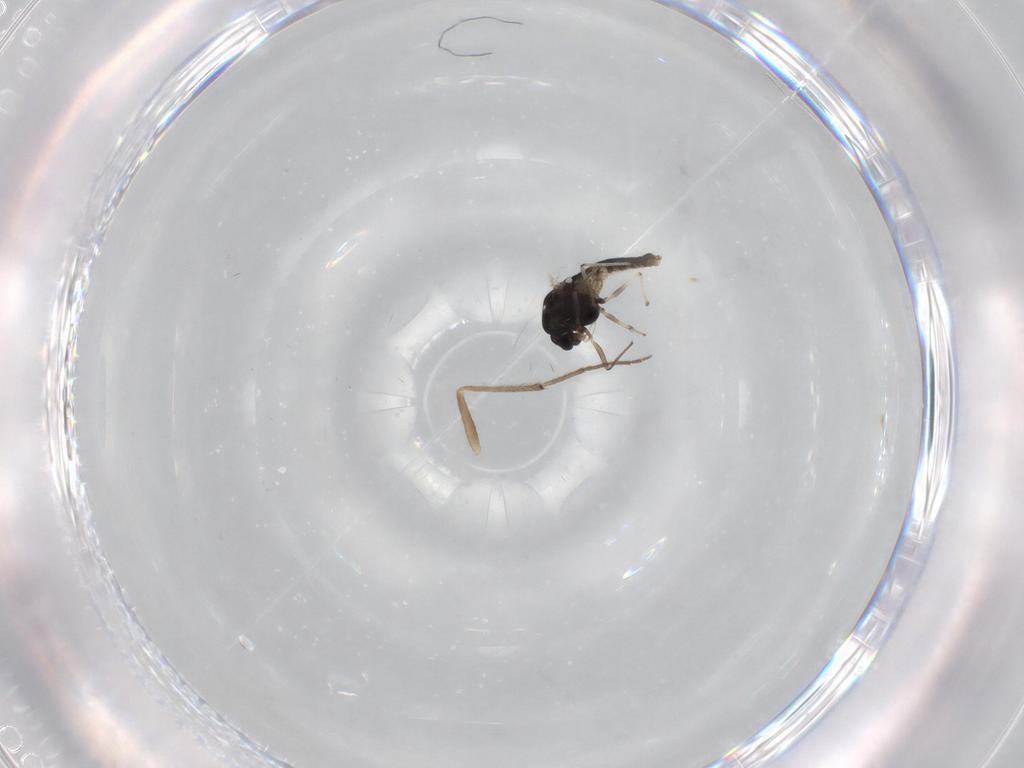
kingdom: Animalia
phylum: Arthropoda
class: Insecta
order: Diptera
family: Chironomidae
